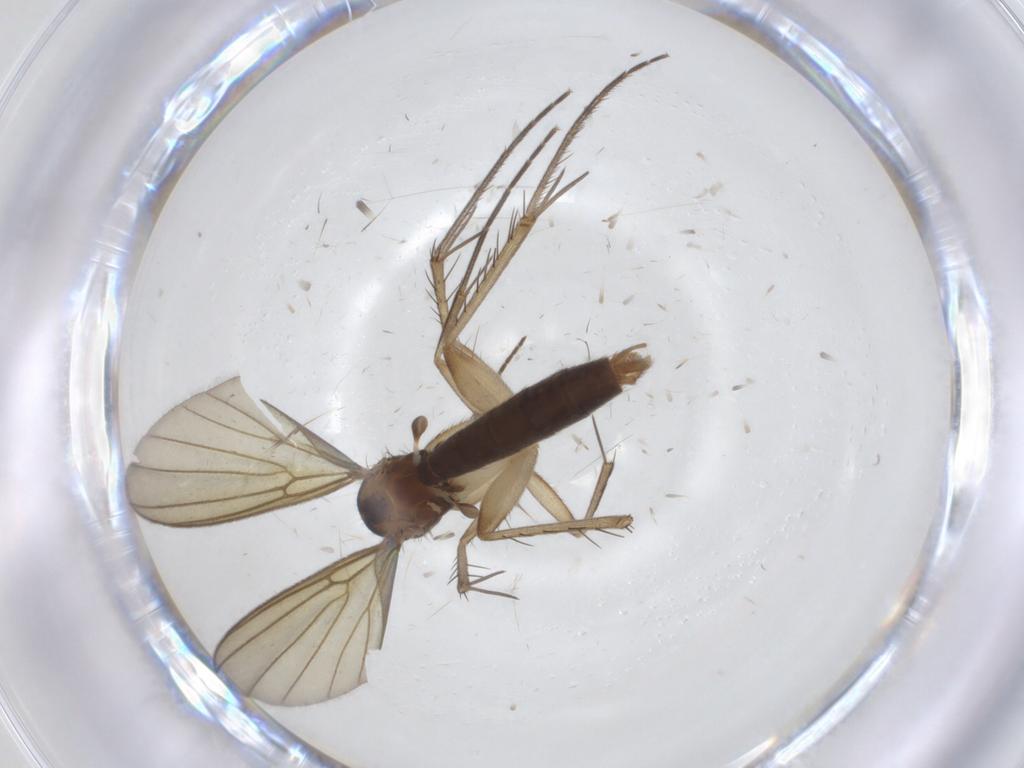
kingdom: Animalia
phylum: Arthropoda
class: Insecta
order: Diptera
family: Mycetophilidae
